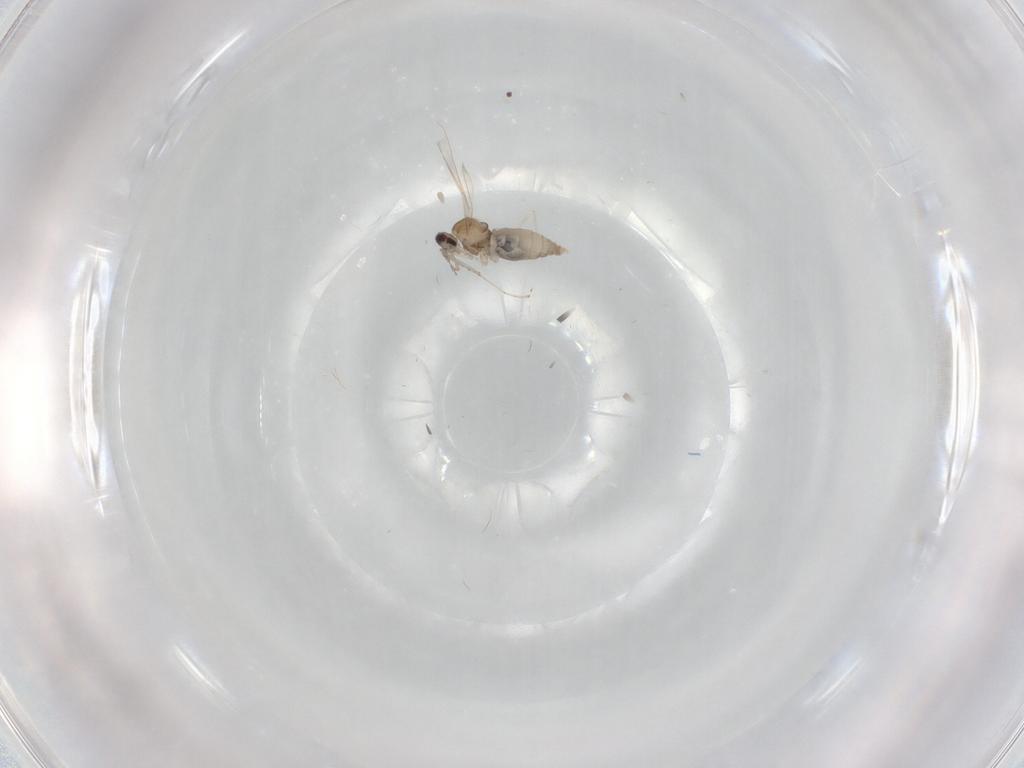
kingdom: Animalia
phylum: Arthropoda
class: Insecta
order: Diptera
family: Cecidomyiidae
